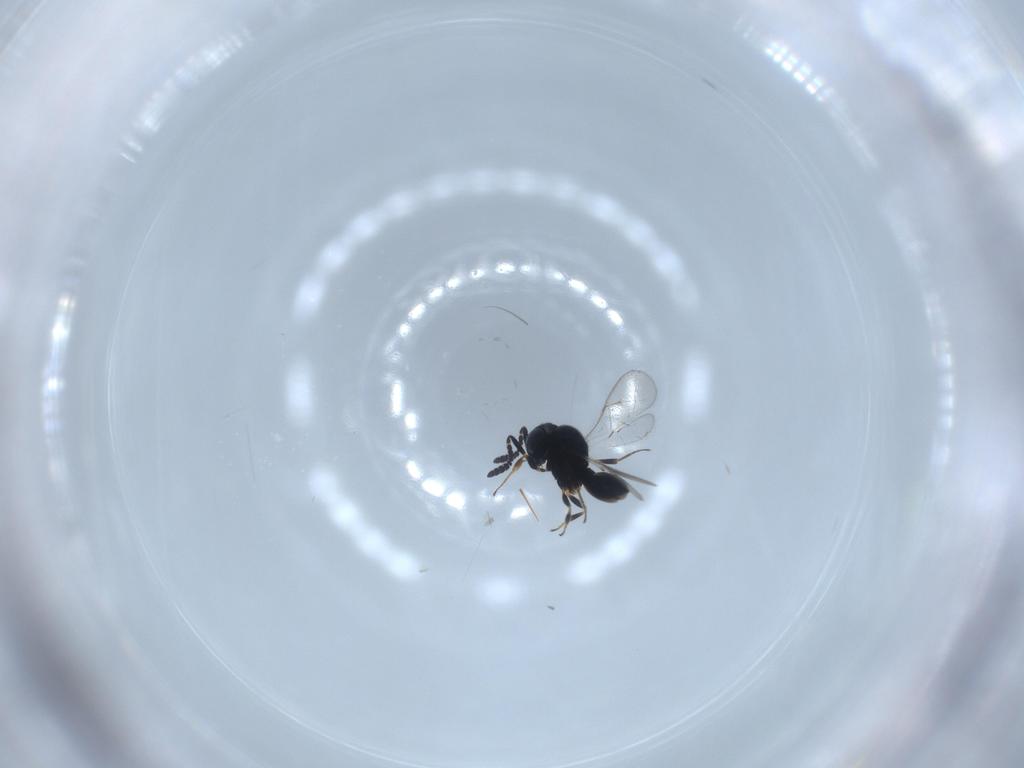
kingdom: Animalia
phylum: Arthropoda
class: Insecta
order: Hymenoptera
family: Scelionidae
